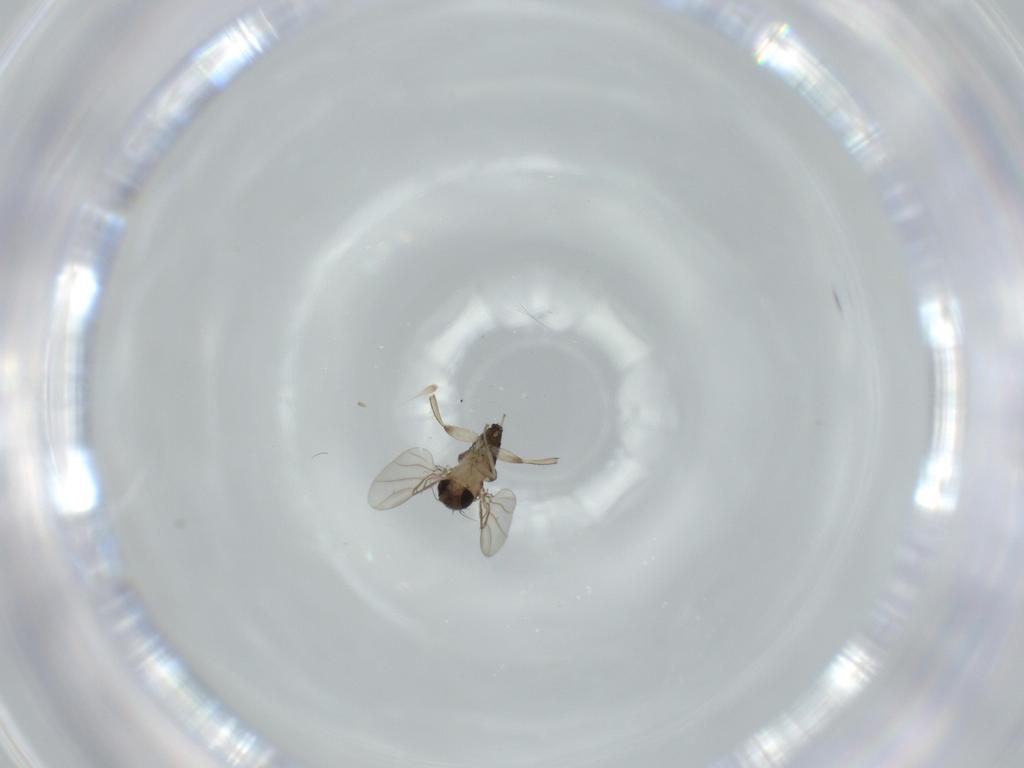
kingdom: Animalia
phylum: Arthropoda
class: Insecta
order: Diptera
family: Phoridae
